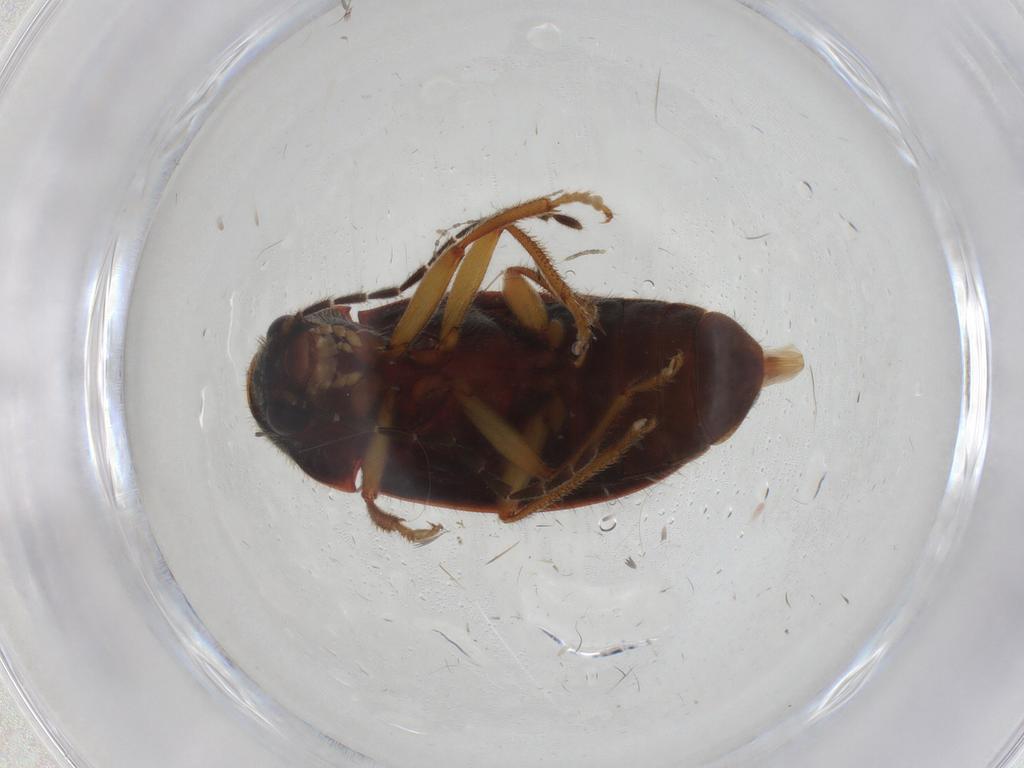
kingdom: Animalia
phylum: Arthropoda
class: Insecta
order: Coleoptera
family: Ptilodactylidae
